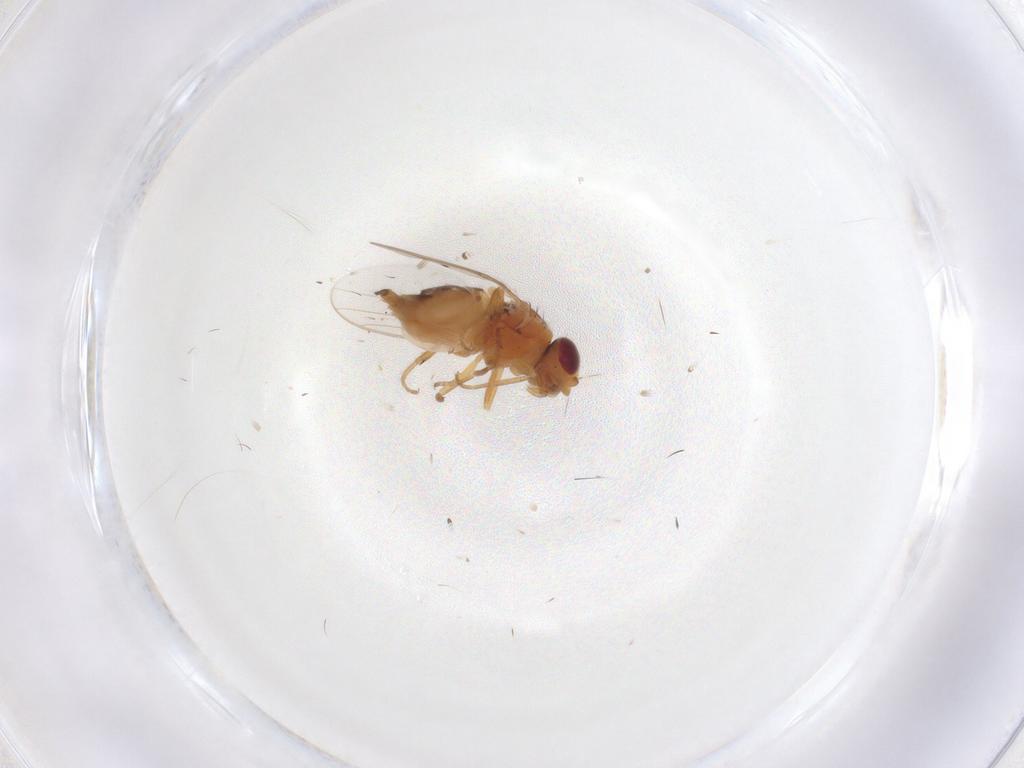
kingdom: Animalia
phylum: Arthropoda
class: Insecta
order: Diptera
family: Chloropidae
